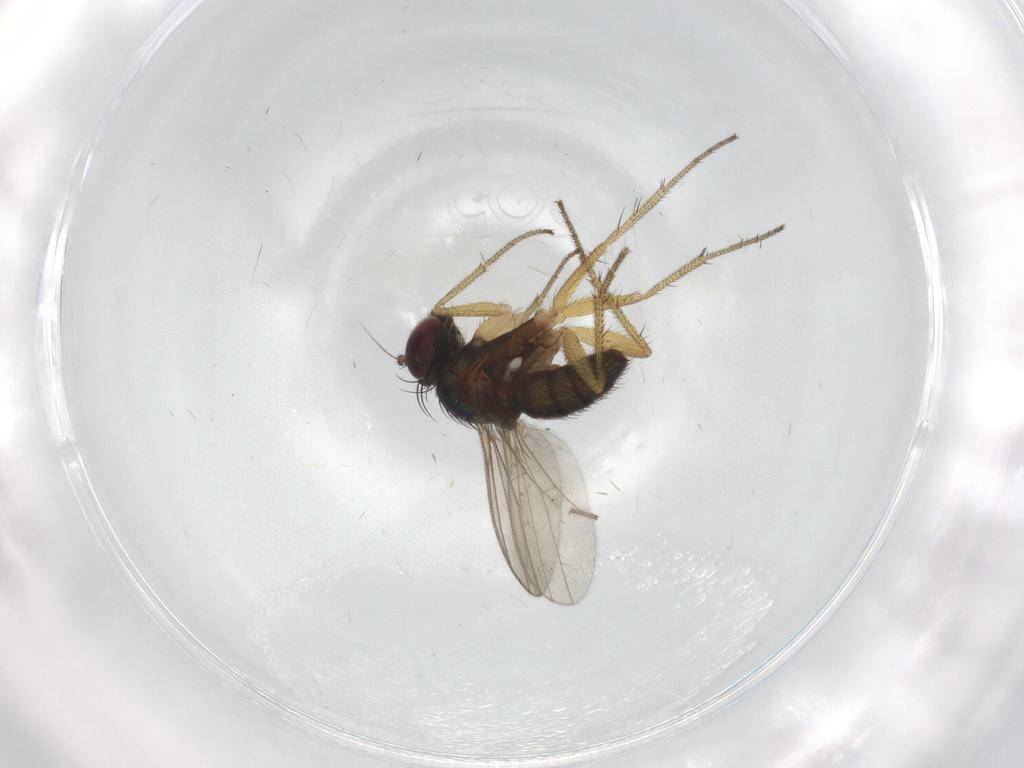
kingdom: Animalia
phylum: Arthropoda
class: Insecta
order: Diptera
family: Dolichopodidae
